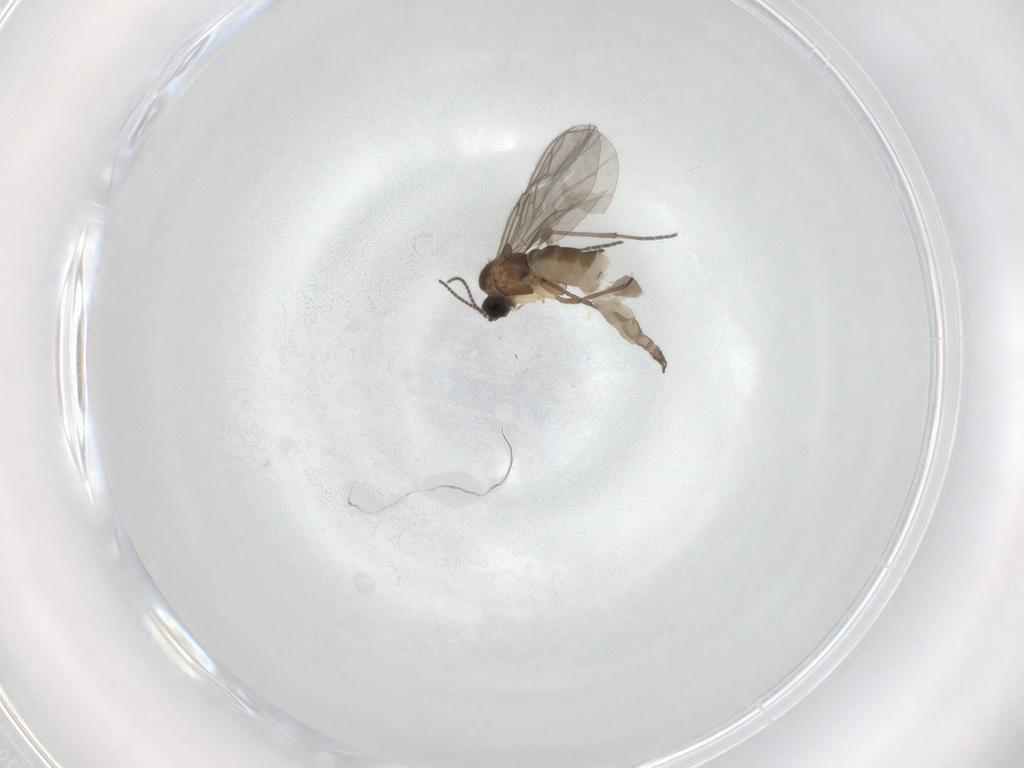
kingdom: Animalia
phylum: Arthropoda
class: Insecta
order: Diptera
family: Sciaridae
